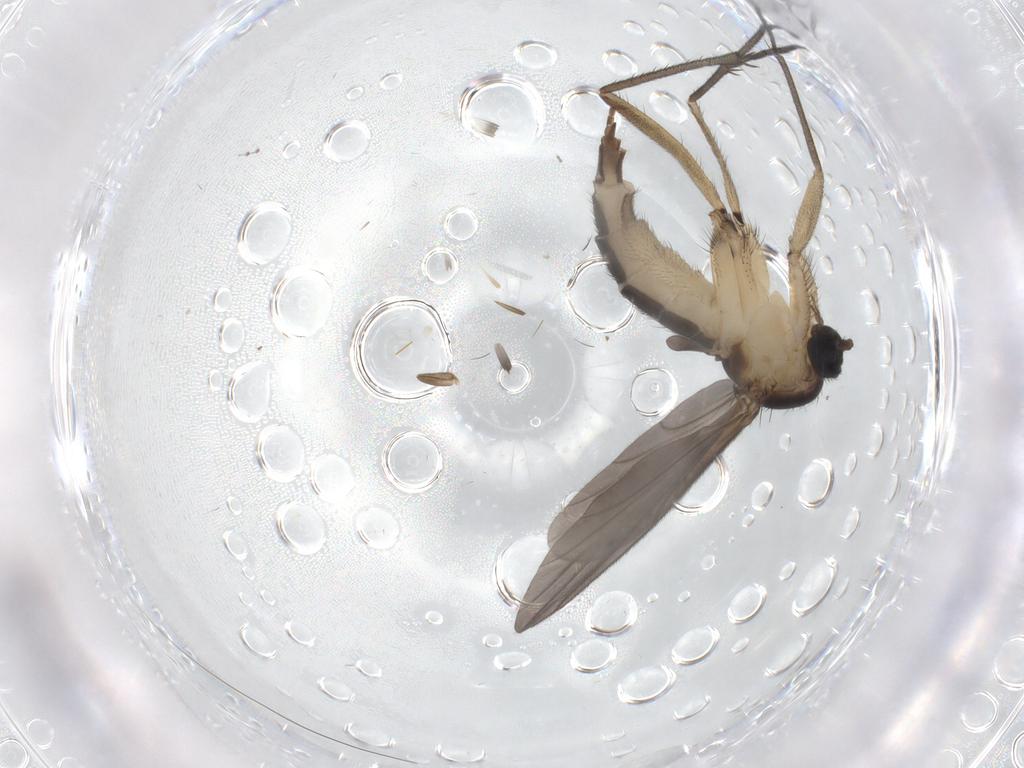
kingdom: Animalia
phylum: Arthropoda
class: Insecta
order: Diptera
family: Sciaridae
